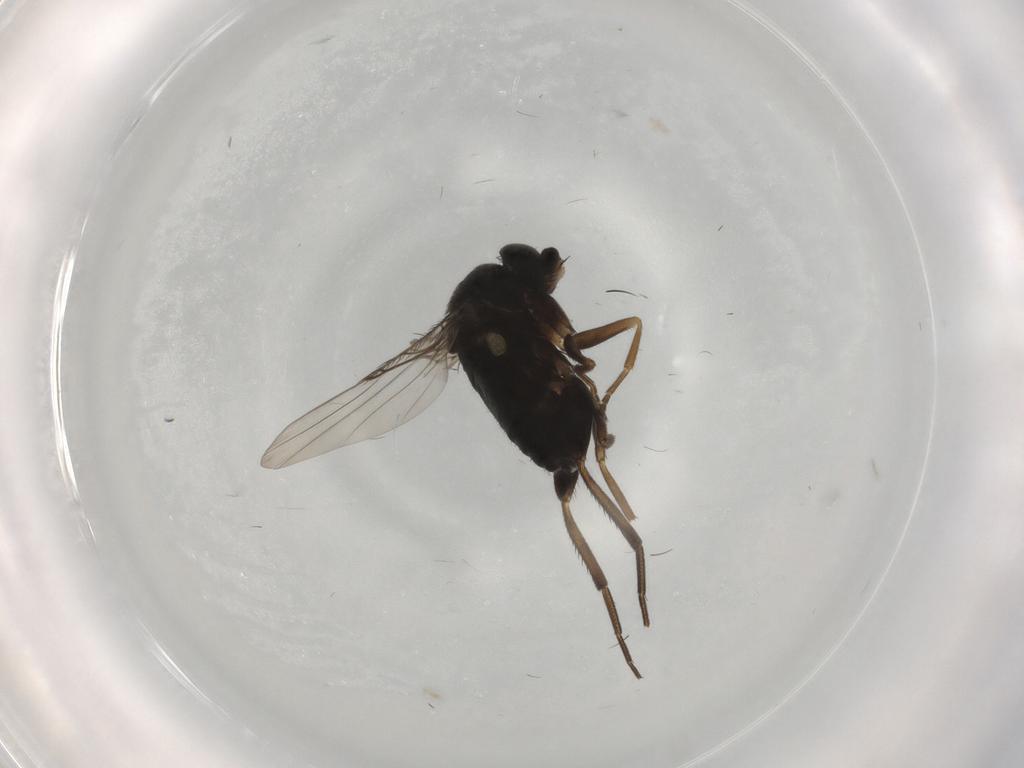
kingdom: Animalia
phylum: Arthropoda
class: Insecta
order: Diptera
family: Phoridae
